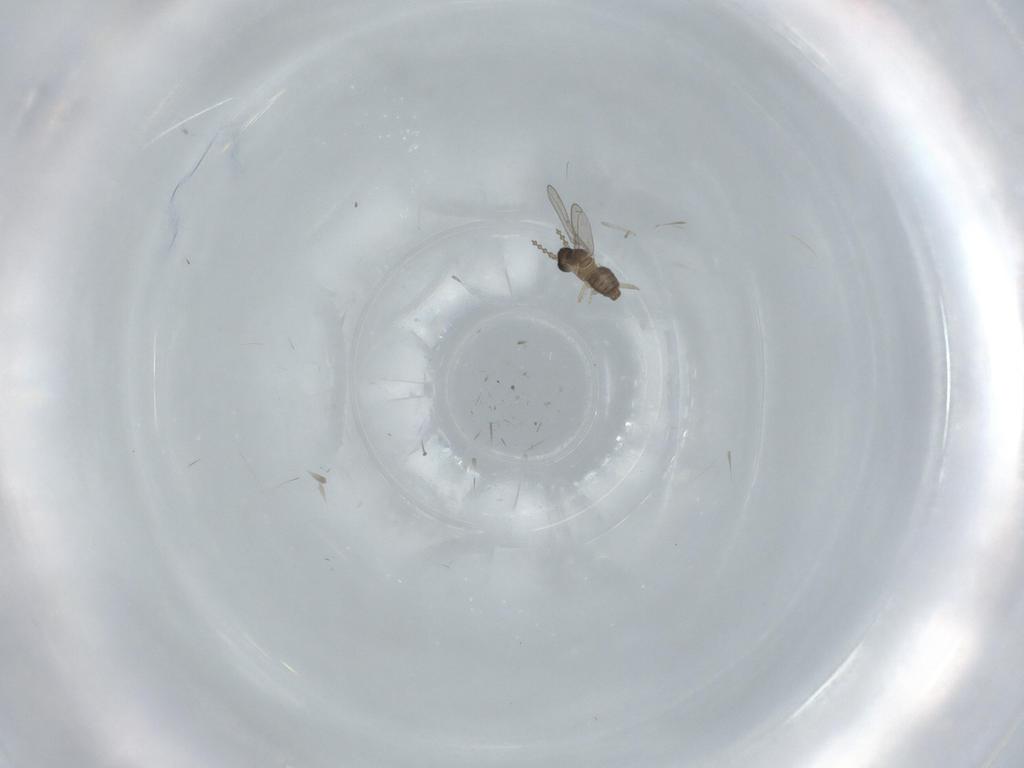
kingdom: Animalia
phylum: Arthropoda
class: Insecta
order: Diptera
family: Cecidomyiidae
